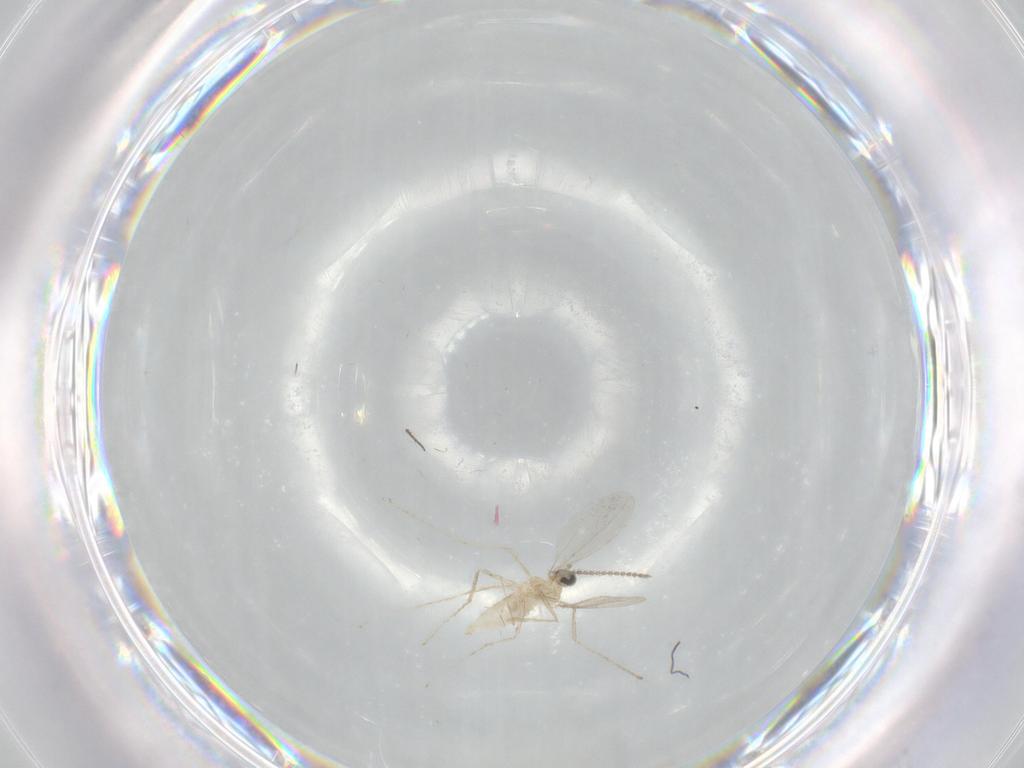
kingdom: Animalia
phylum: Arthropoda
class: Insecta
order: Diptera
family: Cecidomyiidae
